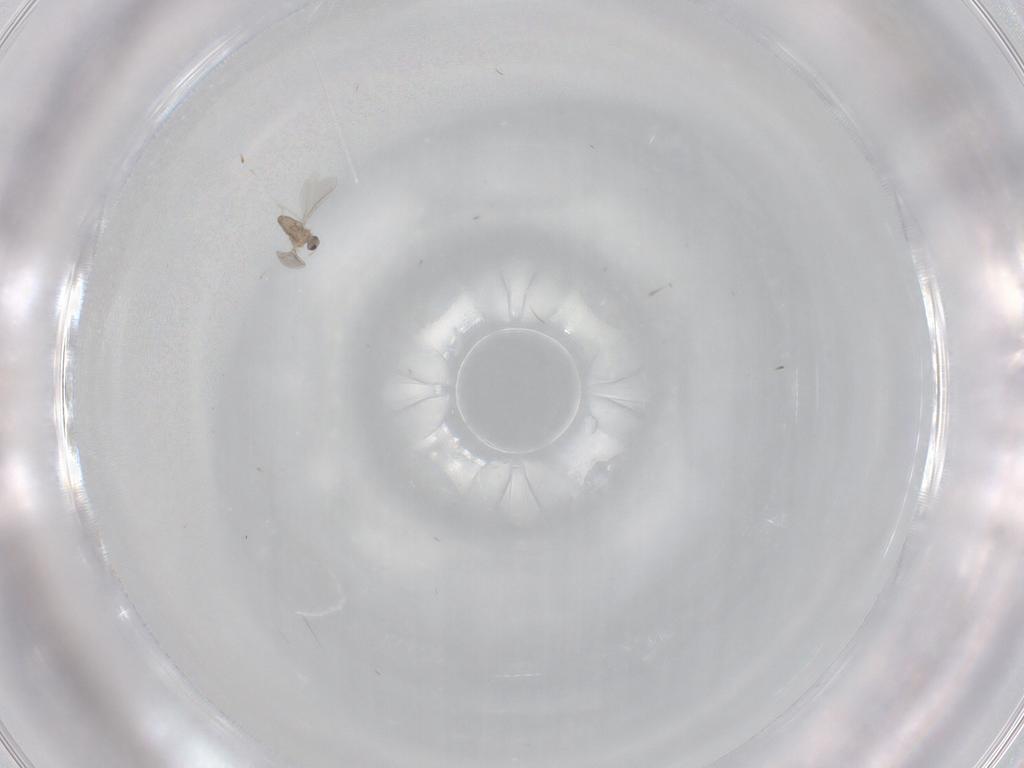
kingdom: Animalia
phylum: Arthropoda
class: Insecta
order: Diptera
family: Cecidomyiidae
